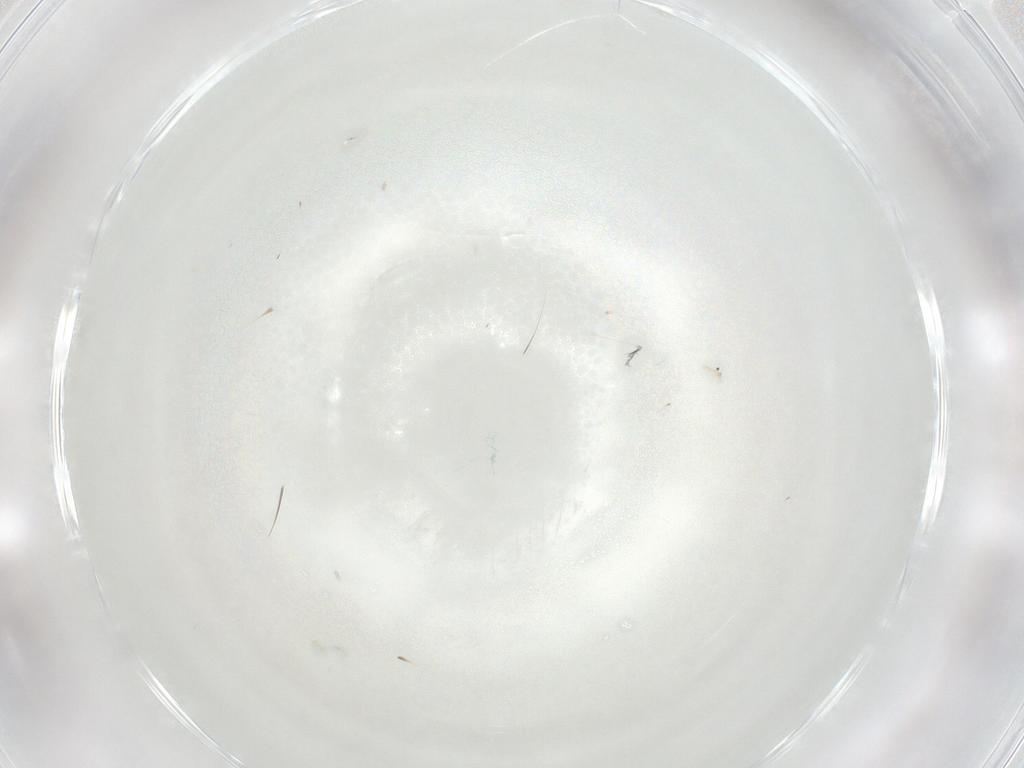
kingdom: Animalia
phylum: Arthropoda
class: Insecta
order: Hymenoptera
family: Mymaridae
